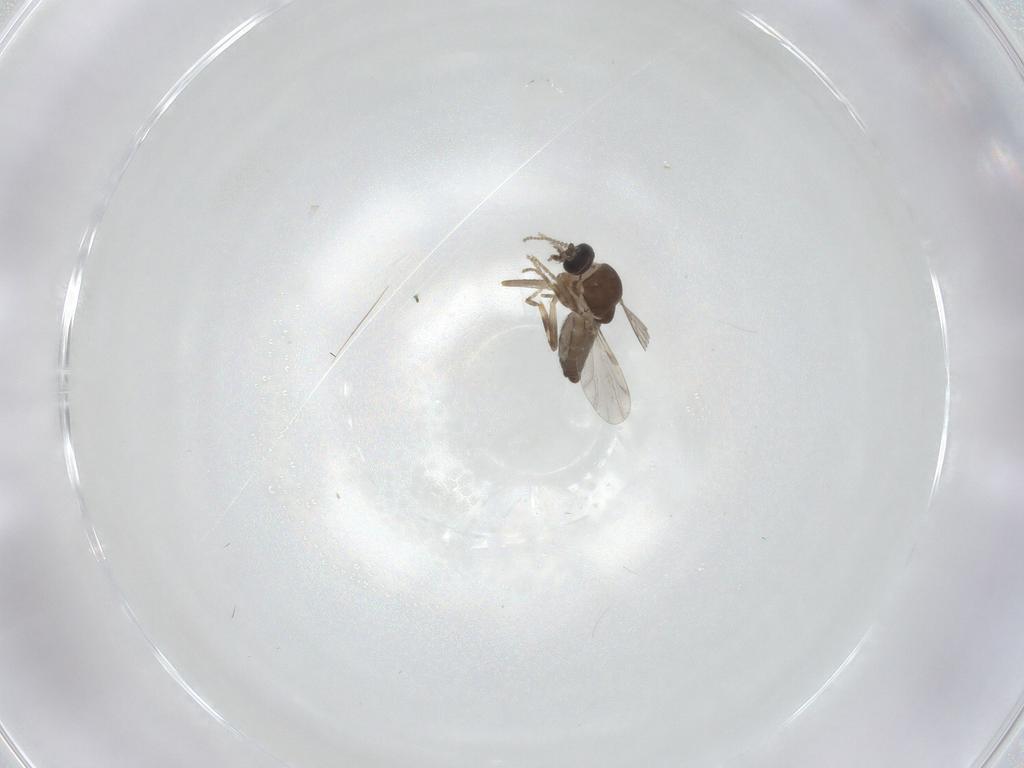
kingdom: Animalia
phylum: Arthropoda
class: Insecta
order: Diptera
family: Ceratopogonidae
